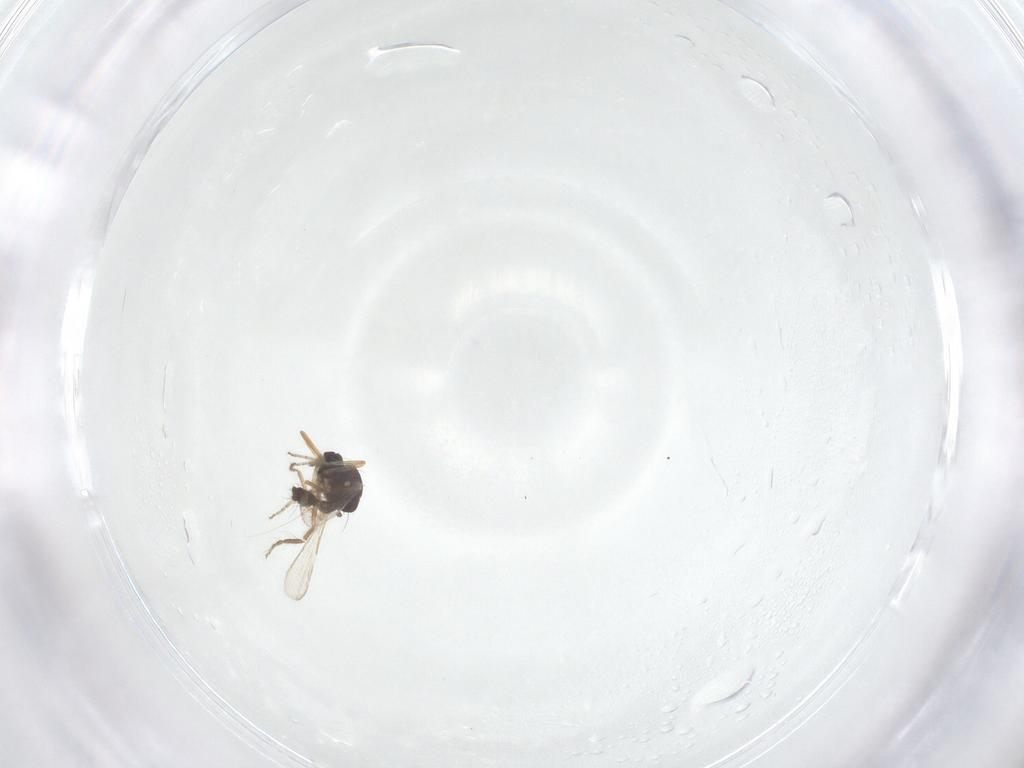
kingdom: Animalia
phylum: Arthropoda
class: Insecta
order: Diptera
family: Ceratopogonidae
